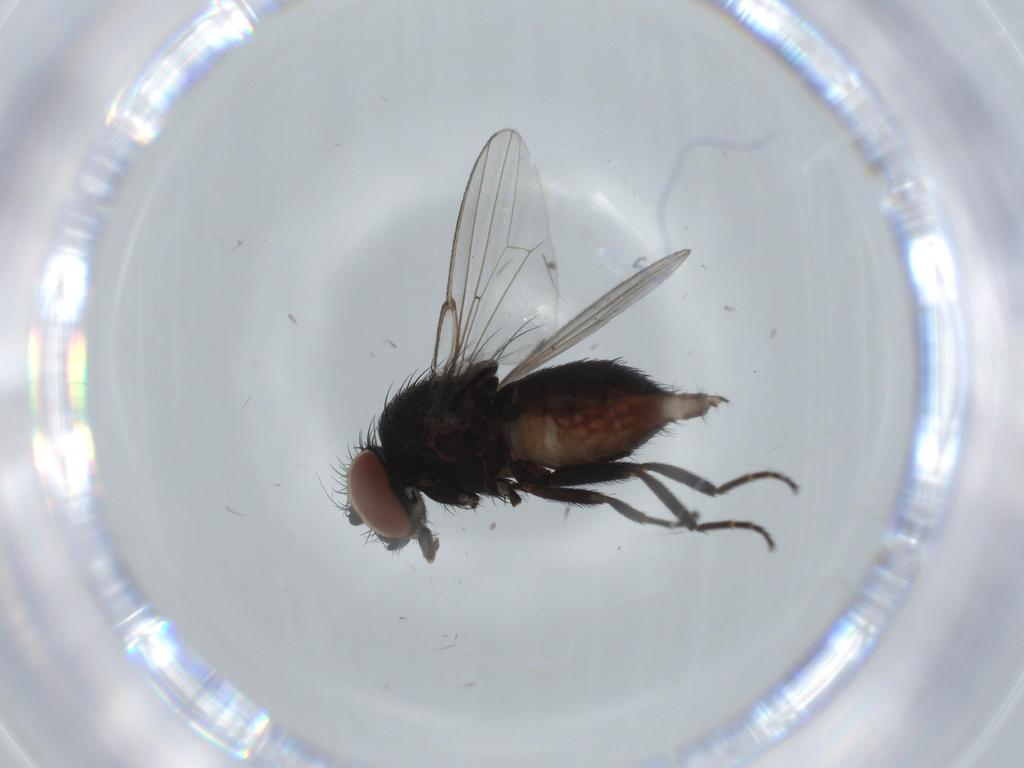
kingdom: Animalia
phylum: Arthropoda
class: Insecta
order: Diptera
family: Milichiidae
